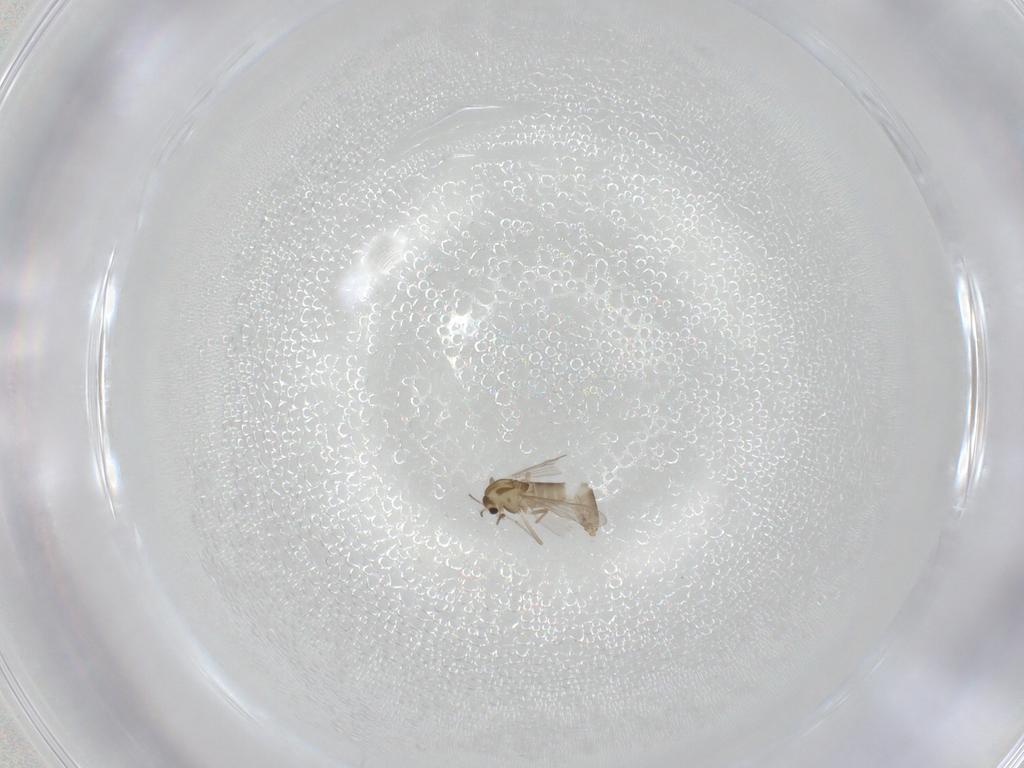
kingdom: Animalia
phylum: Arthropoda
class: Insecta
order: Diptera
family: Chironomidae
